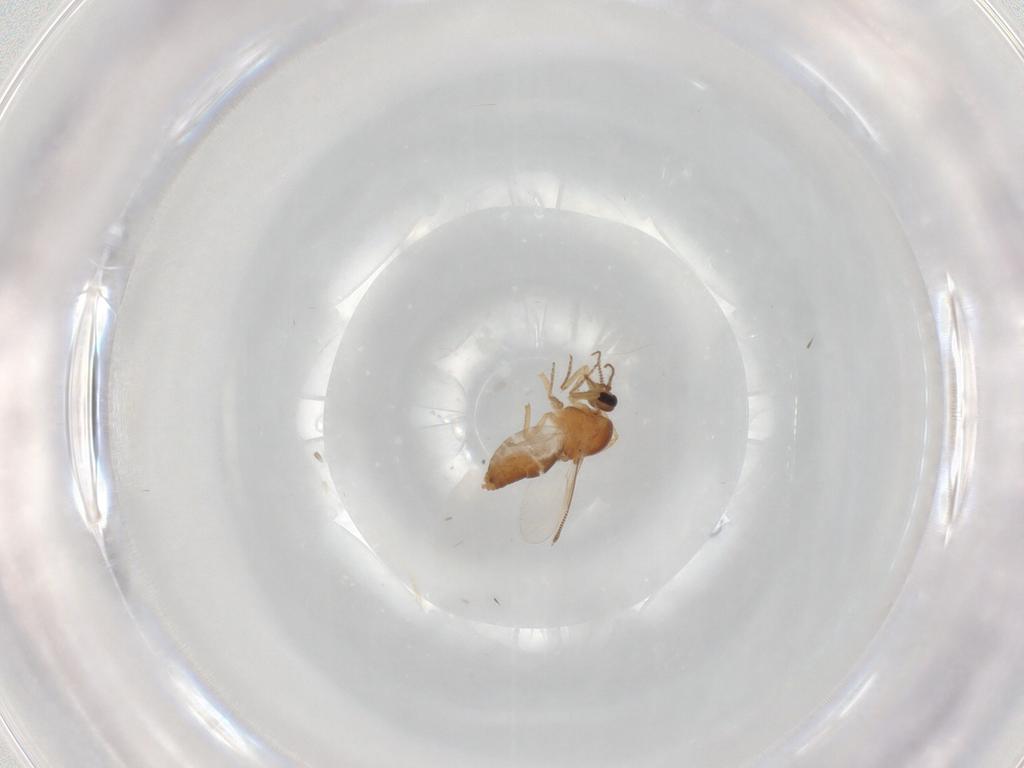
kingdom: Animalia
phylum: Arthropoda
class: Insecta
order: Diptera
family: Chironomidae
